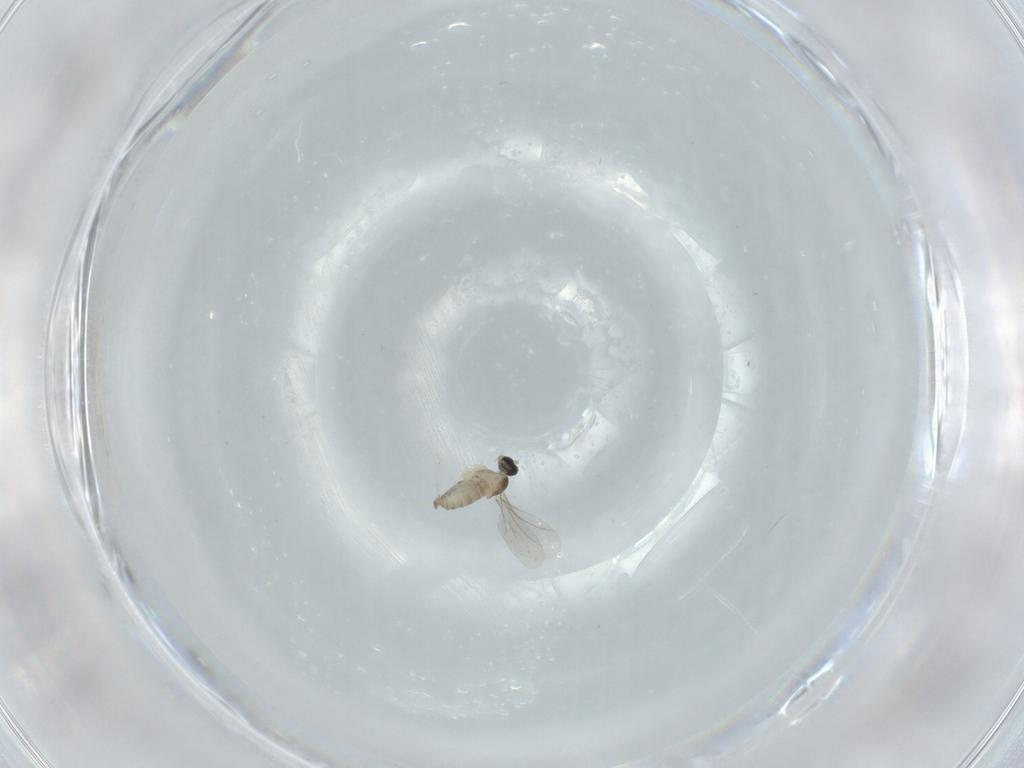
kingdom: Animalia
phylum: Arthropoda
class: Insecta
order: Diptera
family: Cecidomyiidae
